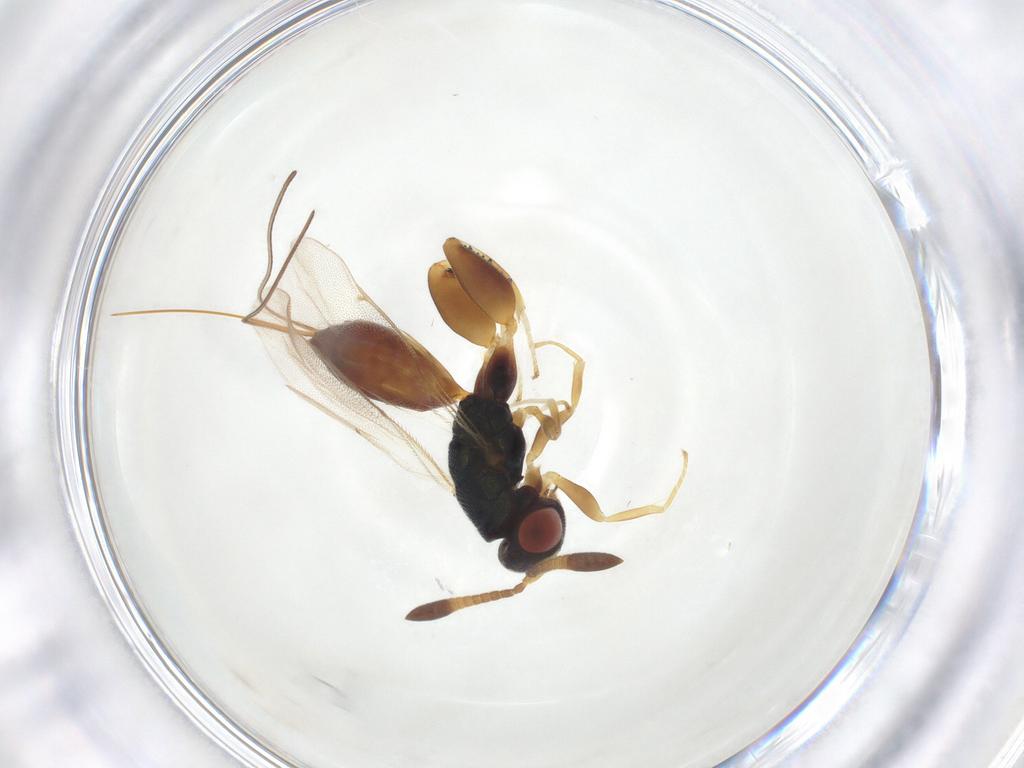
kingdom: Animalia
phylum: Arthropoda
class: Insecta
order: Hymenoptera
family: Torymidae
